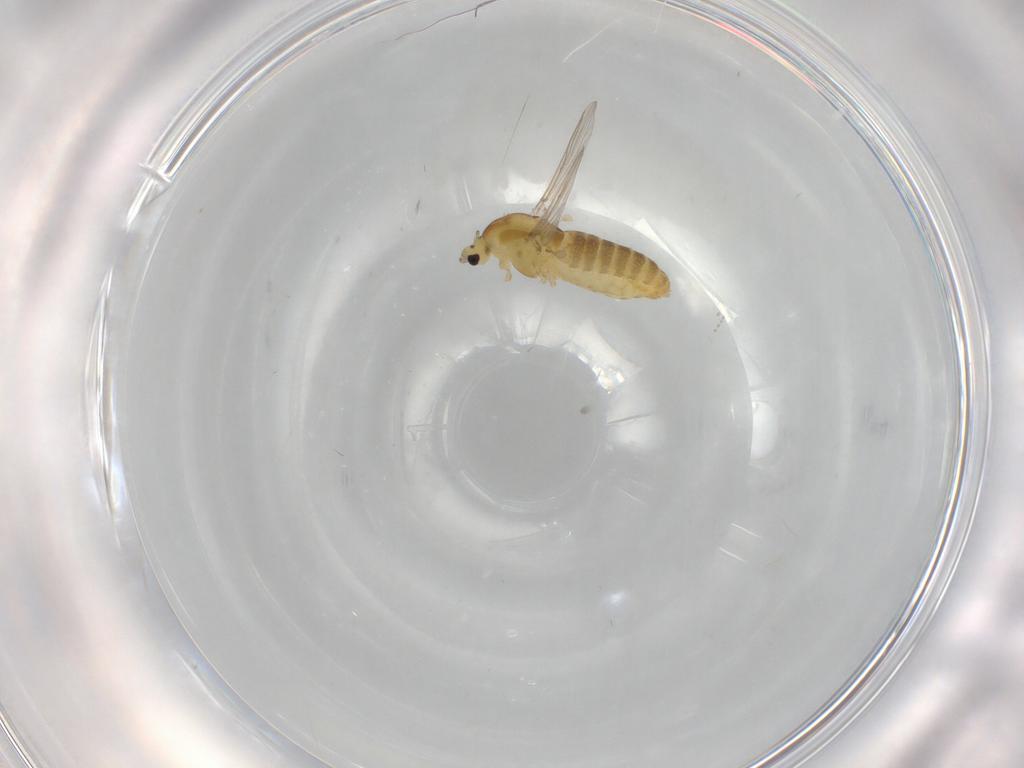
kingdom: Animalia
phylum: Arthropoda
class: Insecta
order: Diptera
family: Chironomidae
